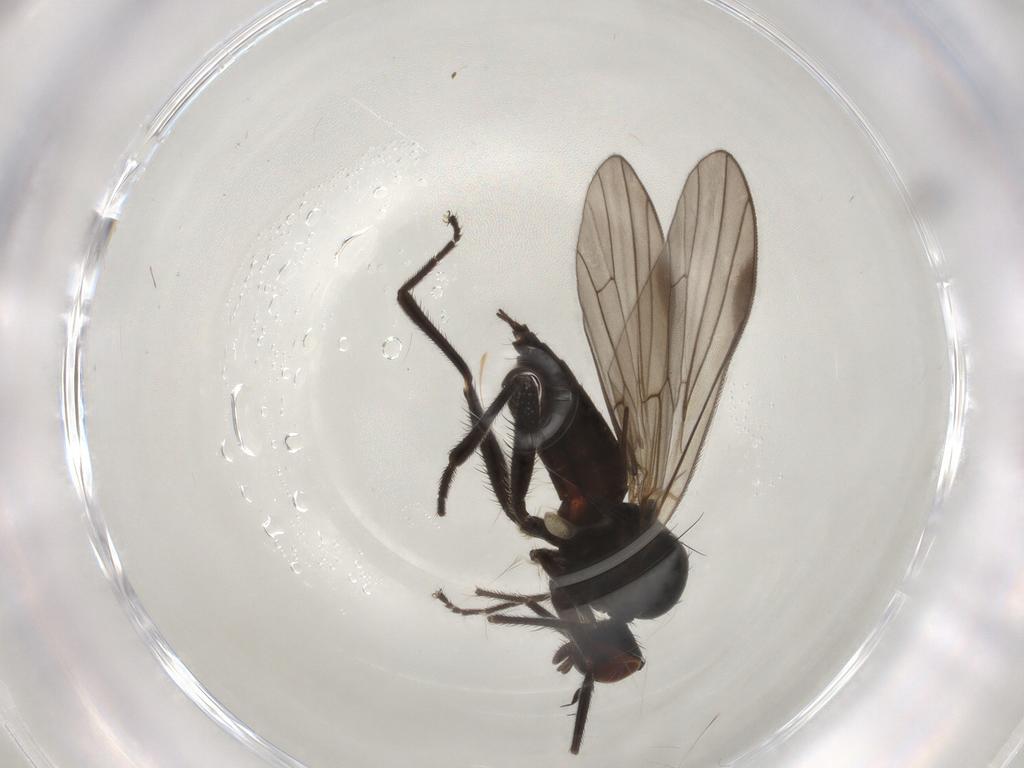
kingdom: Animalia
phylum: Arthropoda
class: Insecta
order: Diptera
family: Hybotidae
